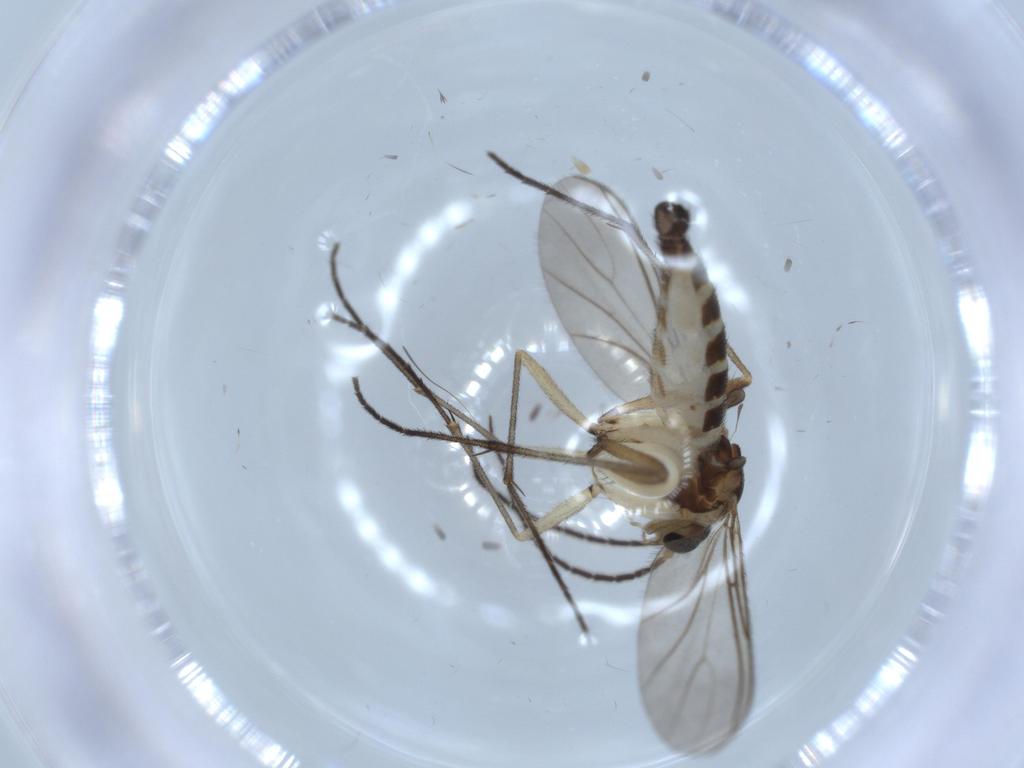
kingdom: Animalia
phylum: Arthropoda
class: Insecta
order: Diptera
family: Sciaridae
